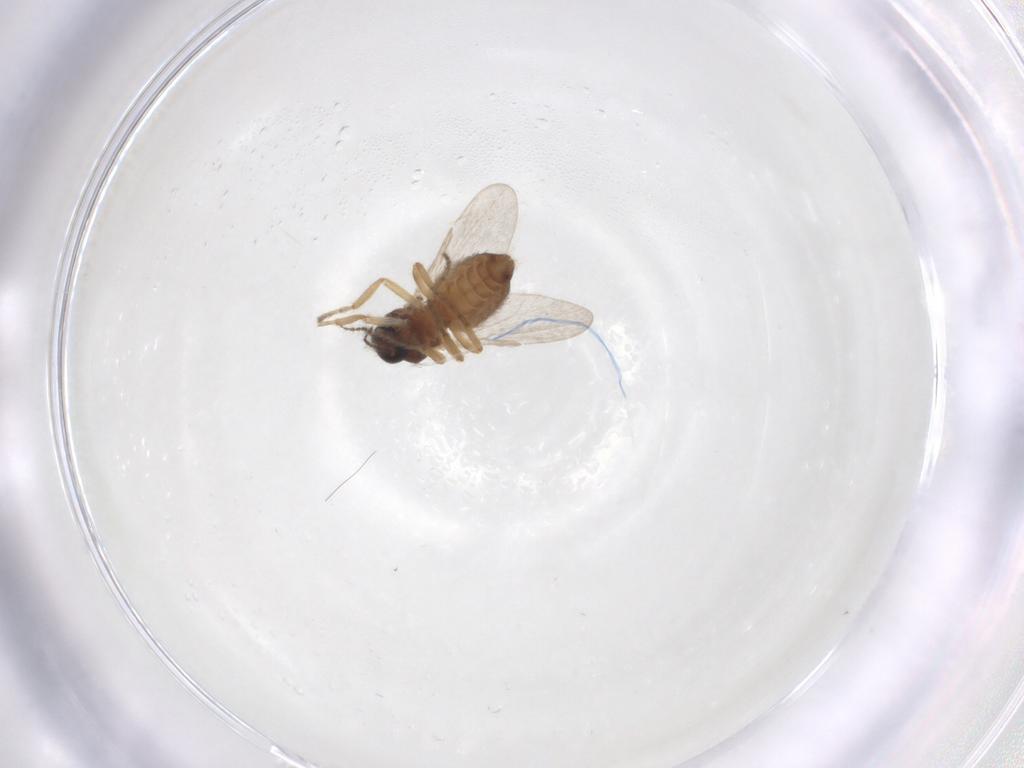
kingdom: Animalia
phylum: Arthropoda
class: Insecta
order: Diptera
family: Ceratopogonidae
